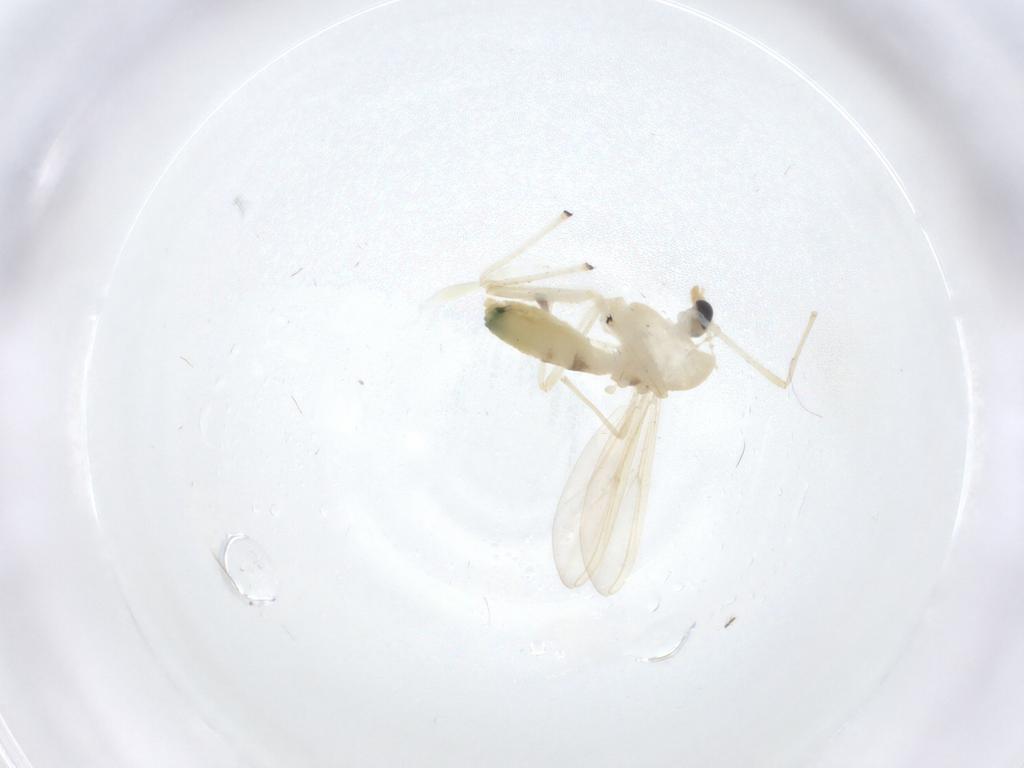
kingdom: Animalia
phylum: Arthropoda
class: Insecta
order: Diptera
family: Chironomidae
